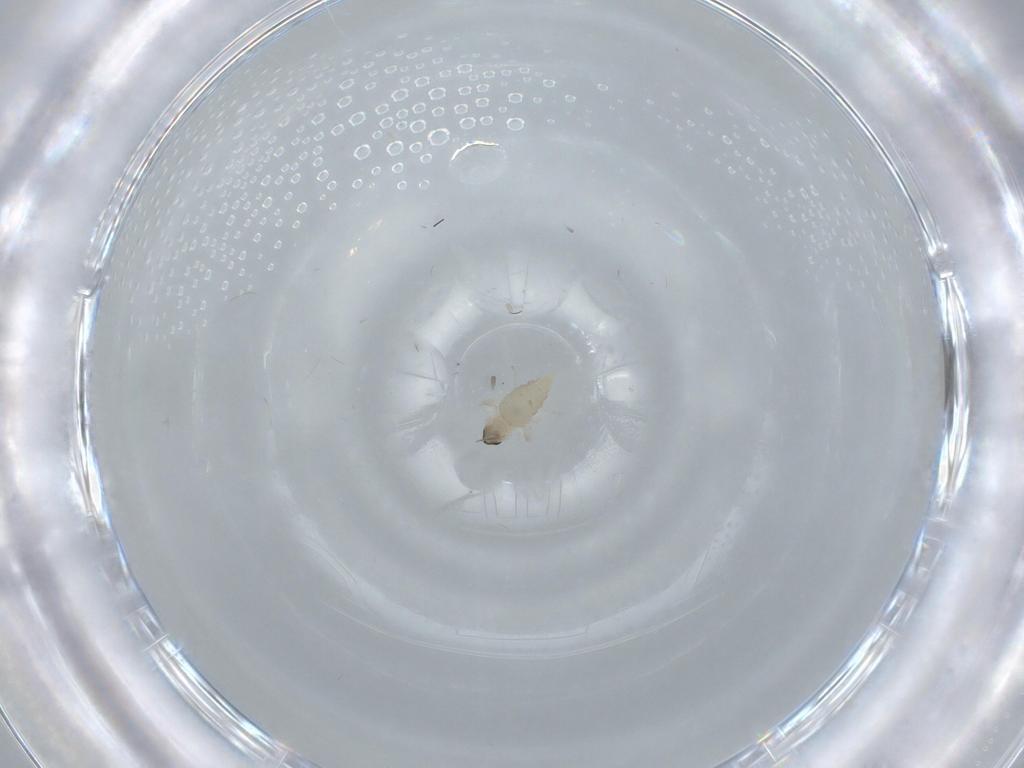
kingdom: Animalia
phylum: Arthropoda
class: Insecta
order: Diptera
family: Cecidomyiidae
